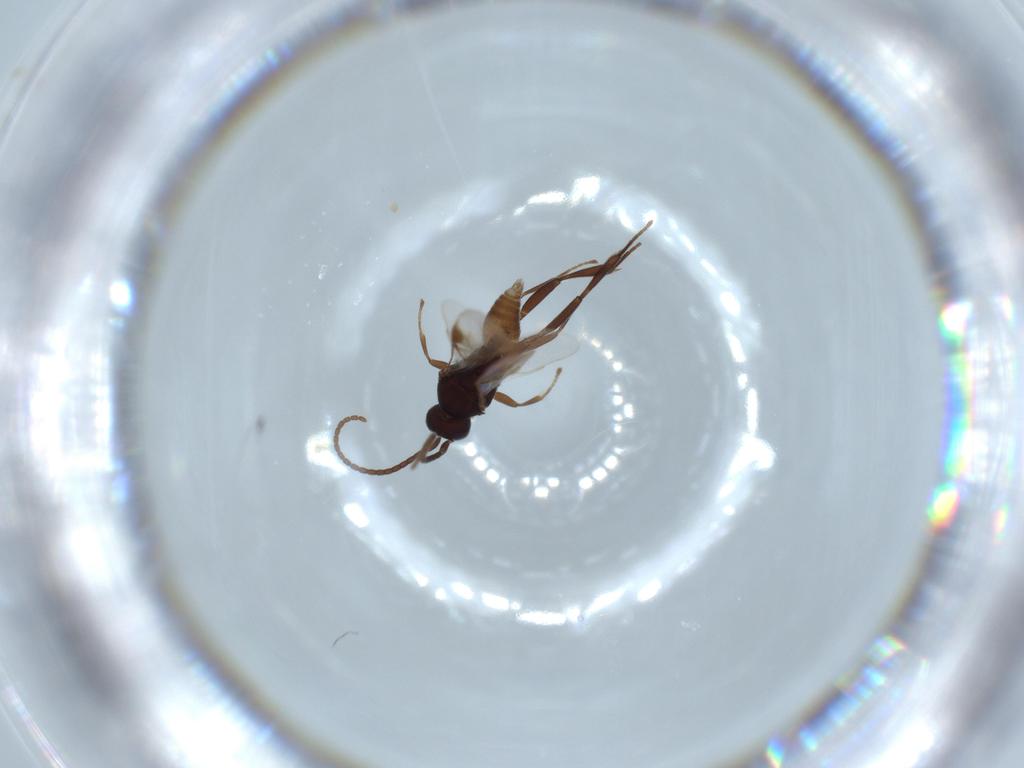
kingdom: Animalia
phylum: Arthropoda
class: Insecta
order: Hymenoptera
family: Braconidae
